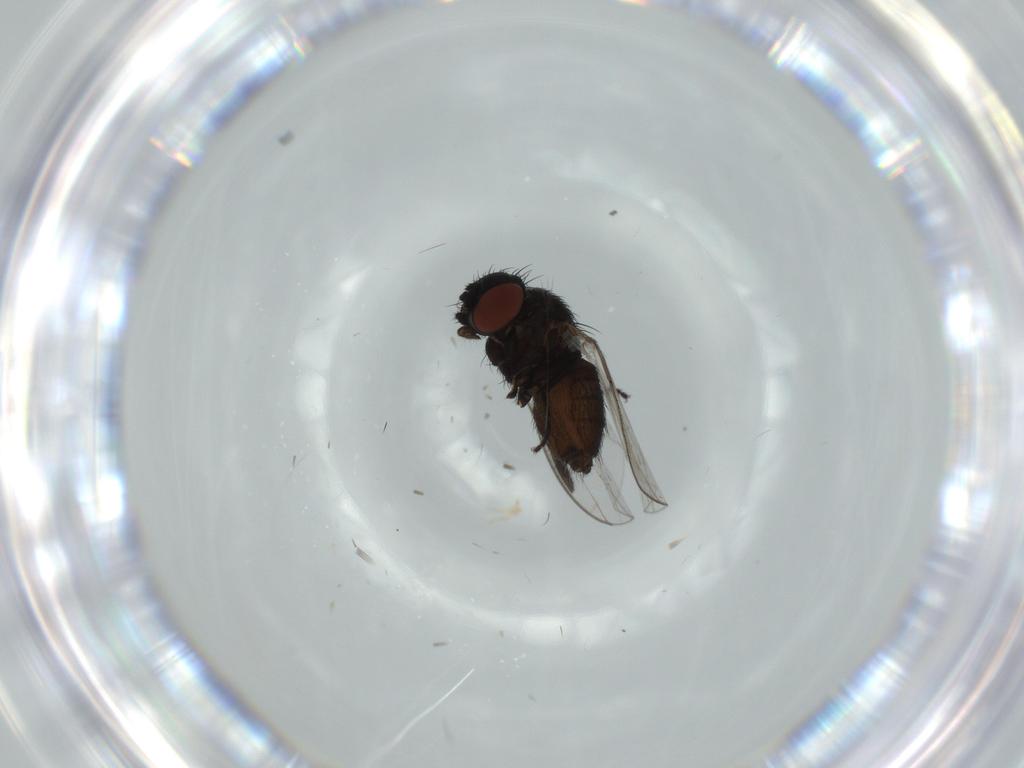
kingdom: Animalia
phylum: Arthropoda
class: Insecta
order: Diptera
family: Milichiidae
